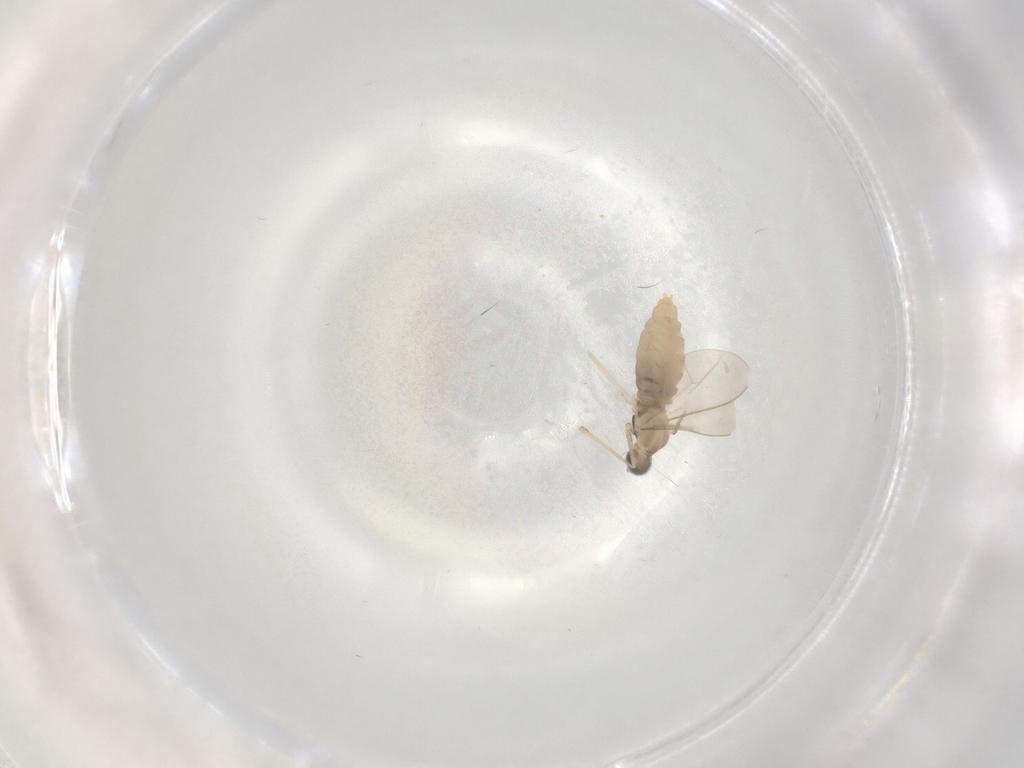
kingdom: Animalia
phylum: Arthropoda
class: Insecta
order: Diptera
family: Cecidomyiidae
